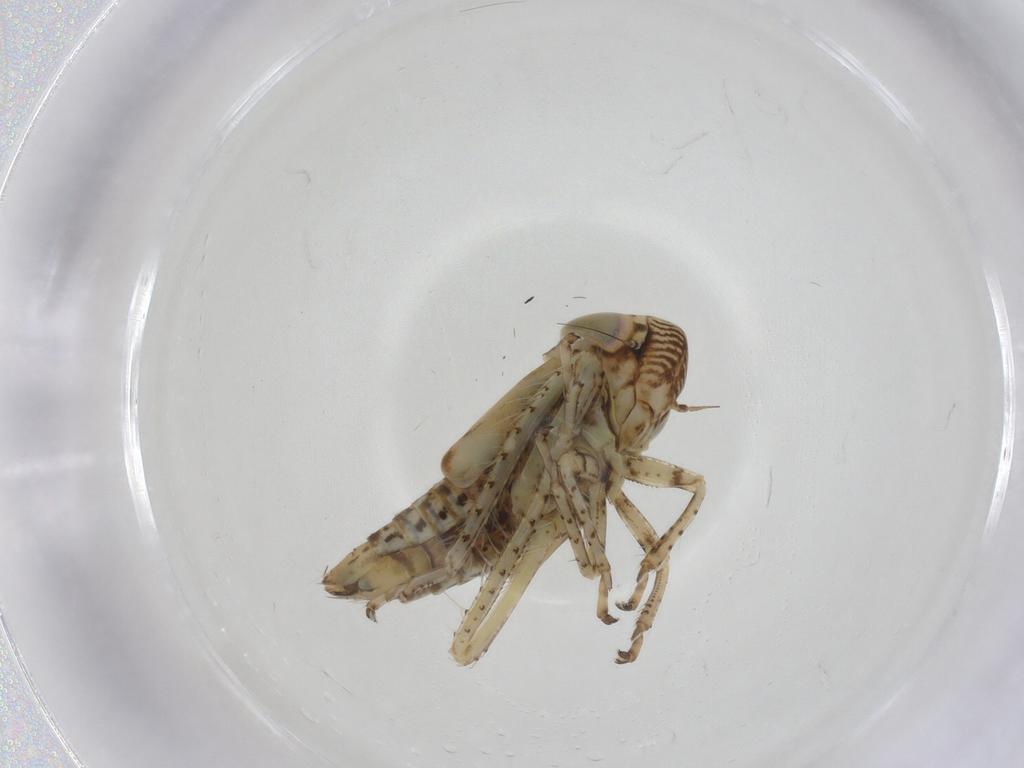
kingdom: Animalia
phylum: Arthropoda
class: Insecta
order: Hemiptera
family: Cicadellidae
